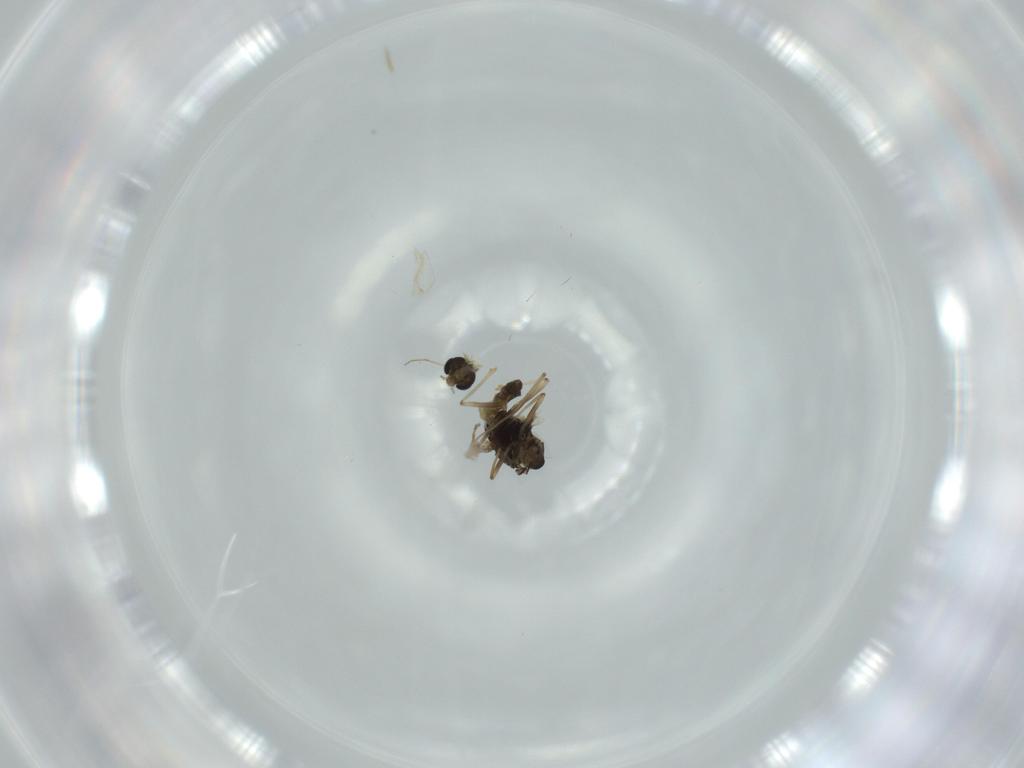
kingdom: Animalia
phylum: Arthropoda
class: Insecta
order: Diptera
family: Chironomidae
